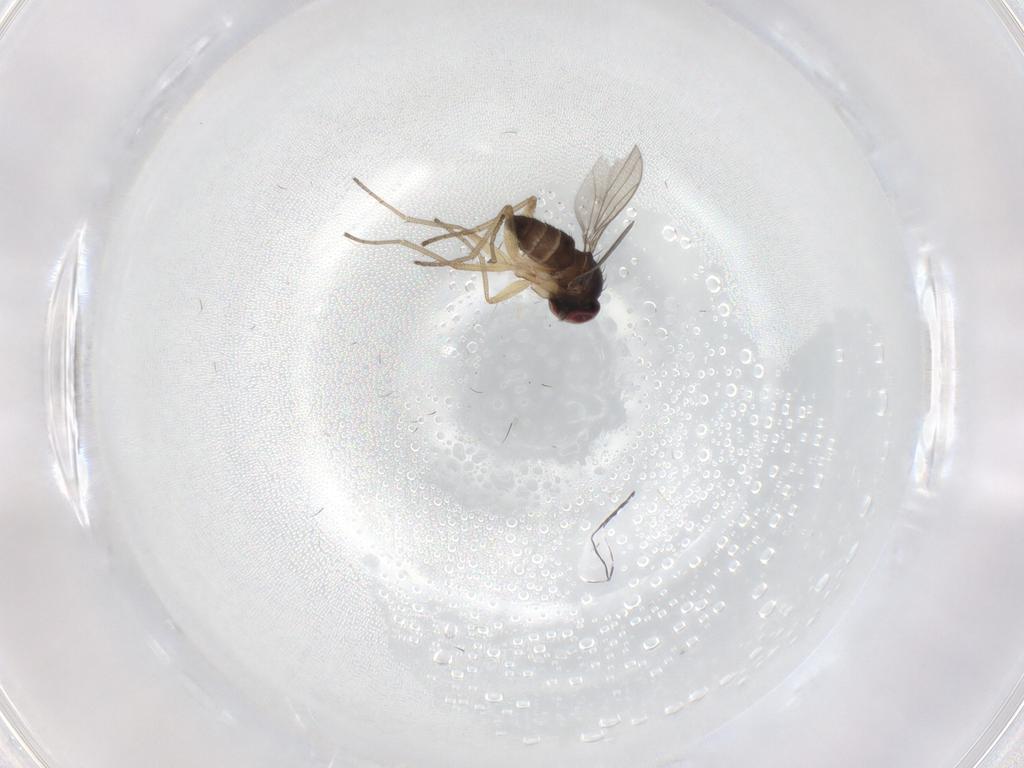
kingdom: Animalia
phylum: Arthropoda
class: Insecta
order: Diptera
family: Dolichopodidae
